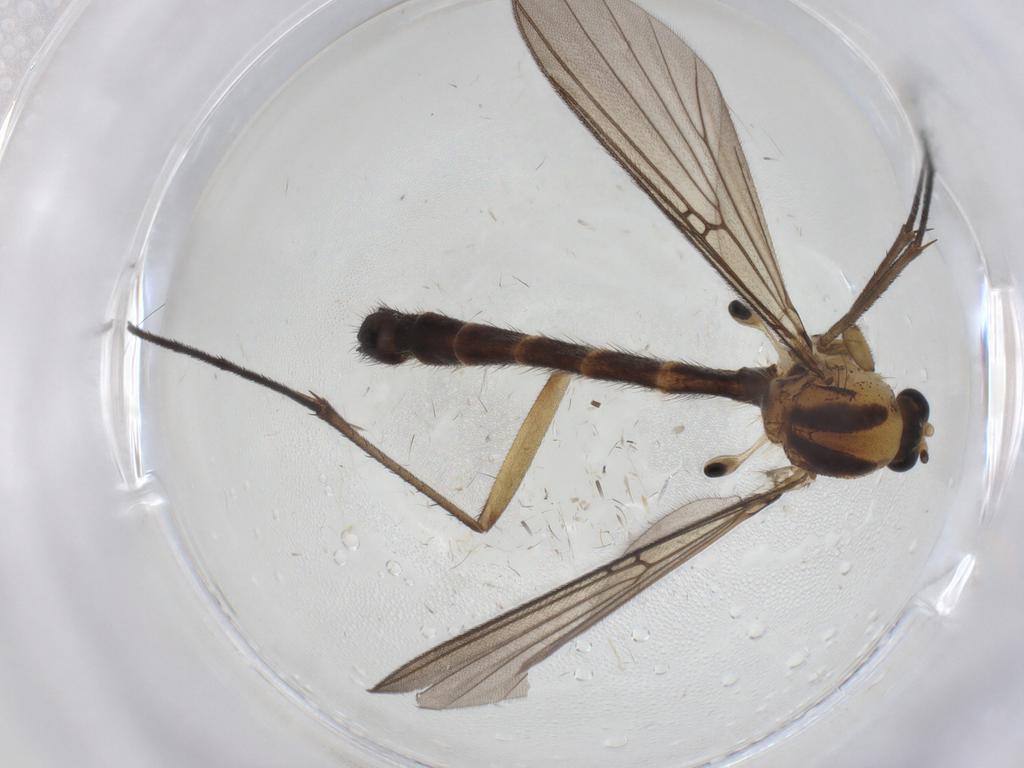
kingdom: Animalia
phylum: Arthropoda
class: Insecta
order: Diptera
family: Cecidomyiidae
